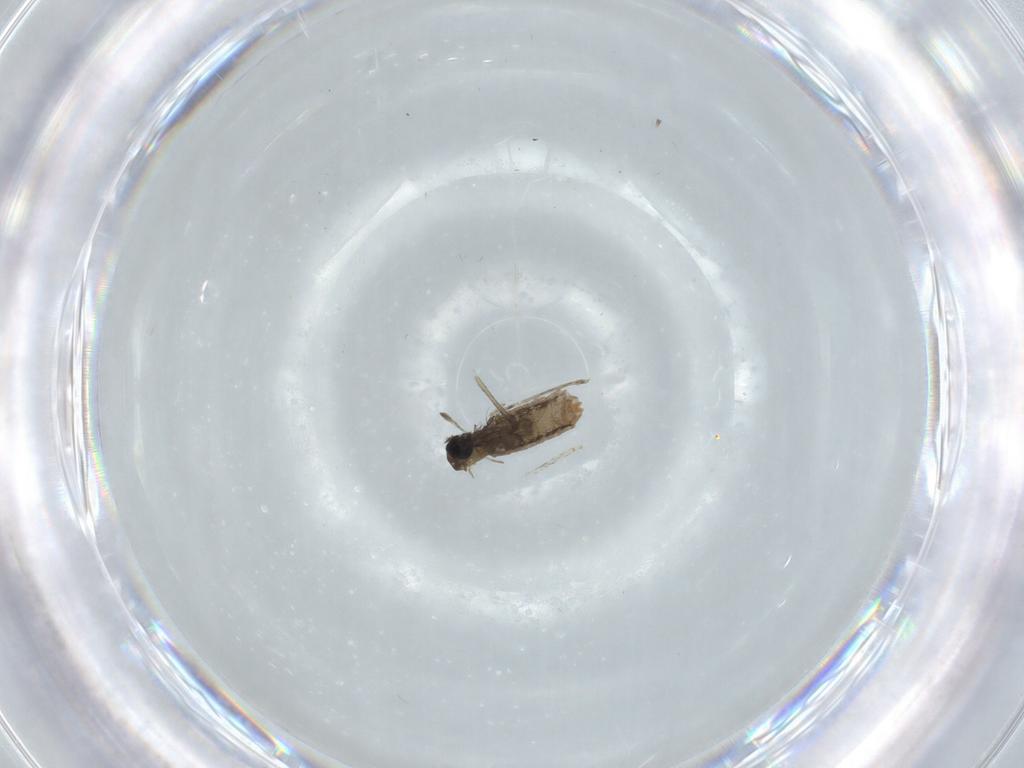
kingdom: Animalia
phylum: Arthropoda
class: Insecta
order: Diptera
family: Cecidomyiidae
